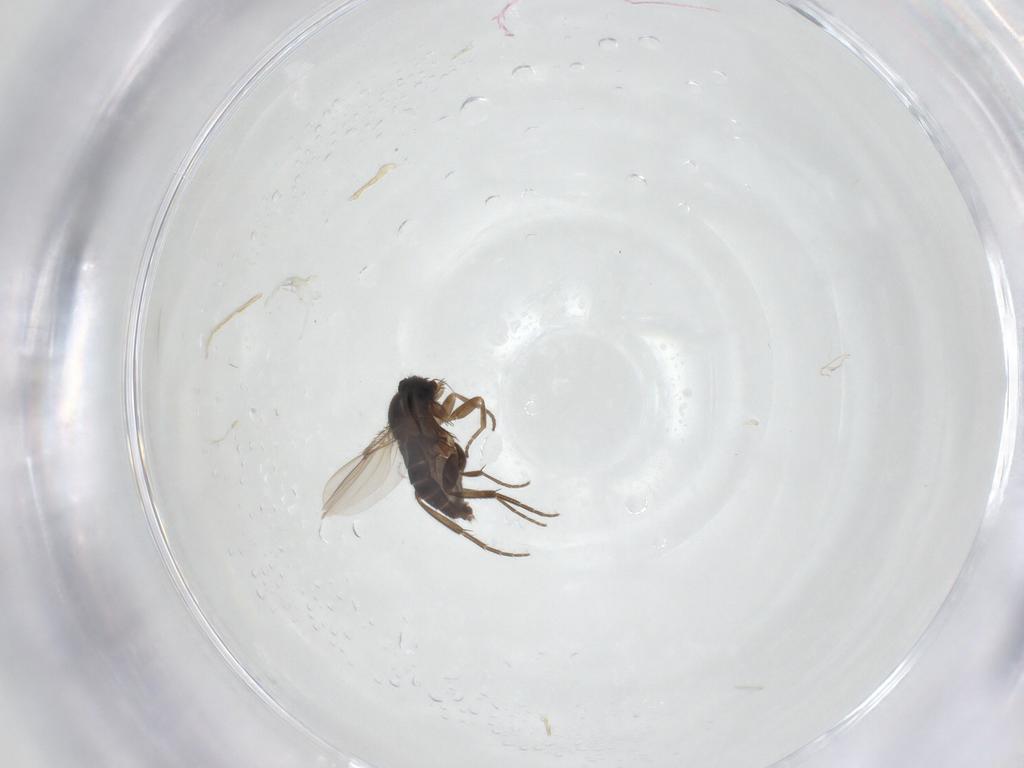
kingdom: Animalia
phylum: Arthropoda
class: Insecta
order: Diptera
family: Phoridae
